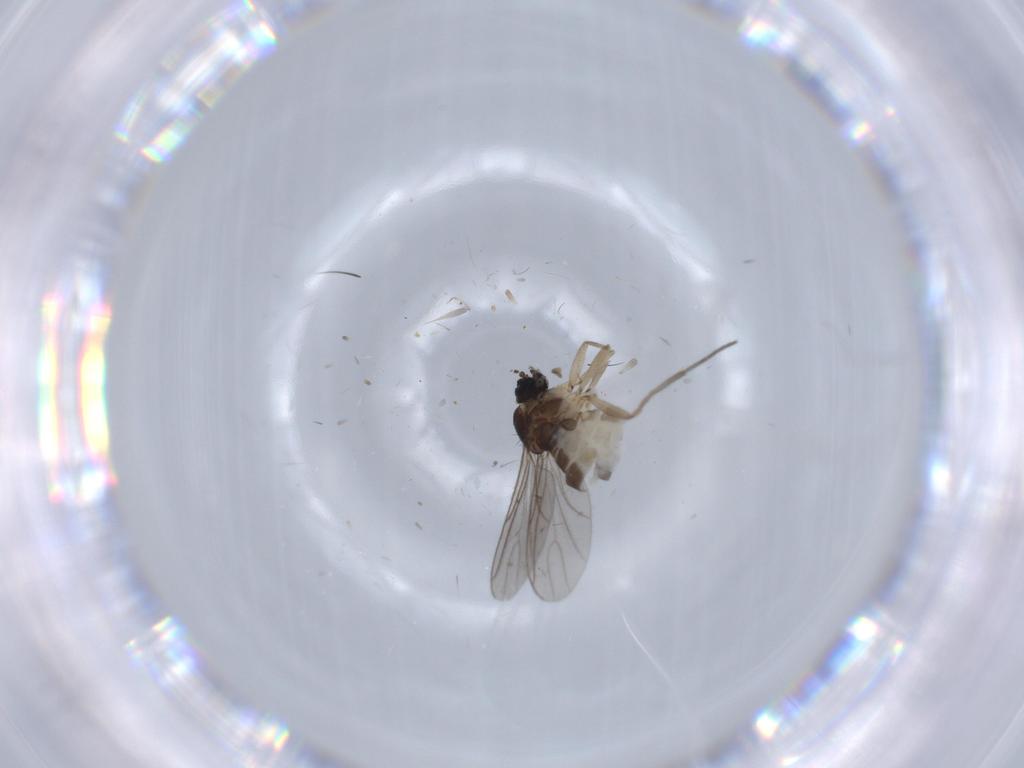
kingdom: Animalia
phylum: Arthropoda
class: Insecta
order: Diptera
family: Sciaridae
